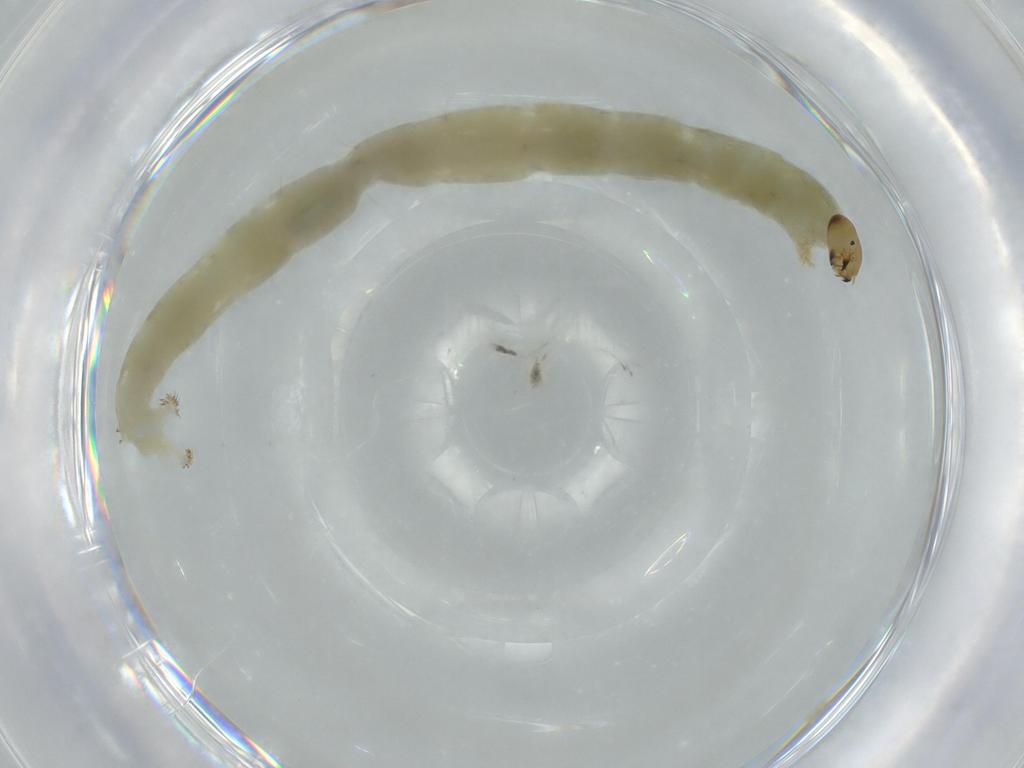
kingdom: Animalia
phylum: Arthropoda
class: Insecta
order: Diptera
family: Chironomidae
